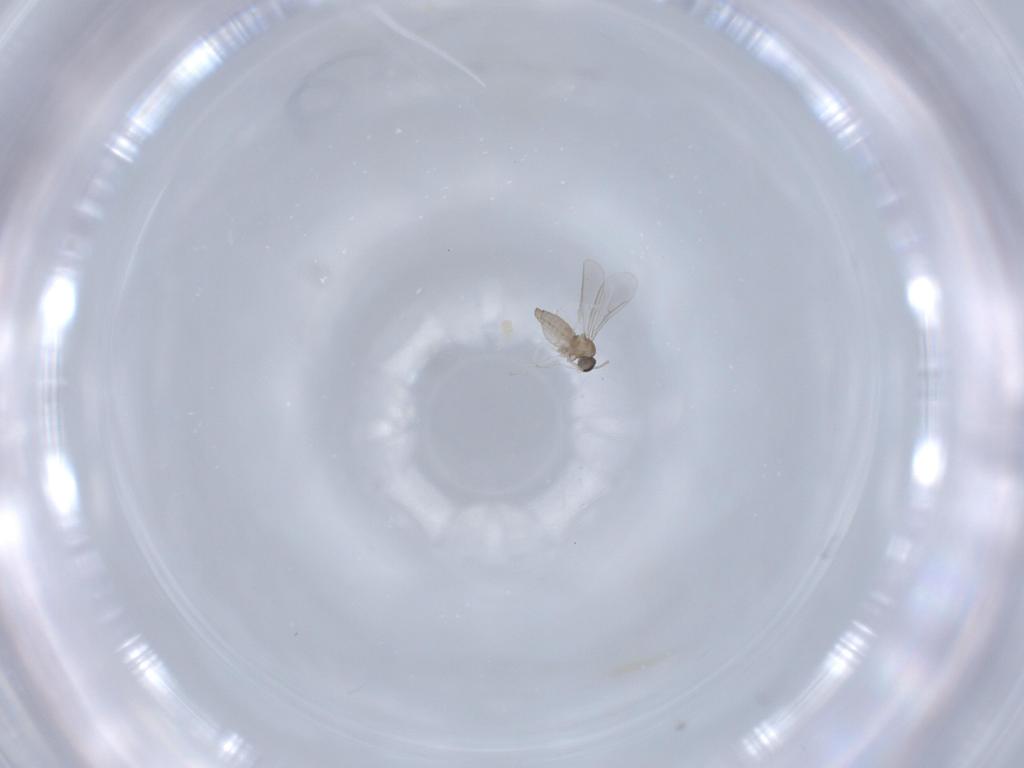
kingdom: Animalia
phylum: Arthropoda
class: Insecta
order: Diptera
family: Cecidomyiidae
